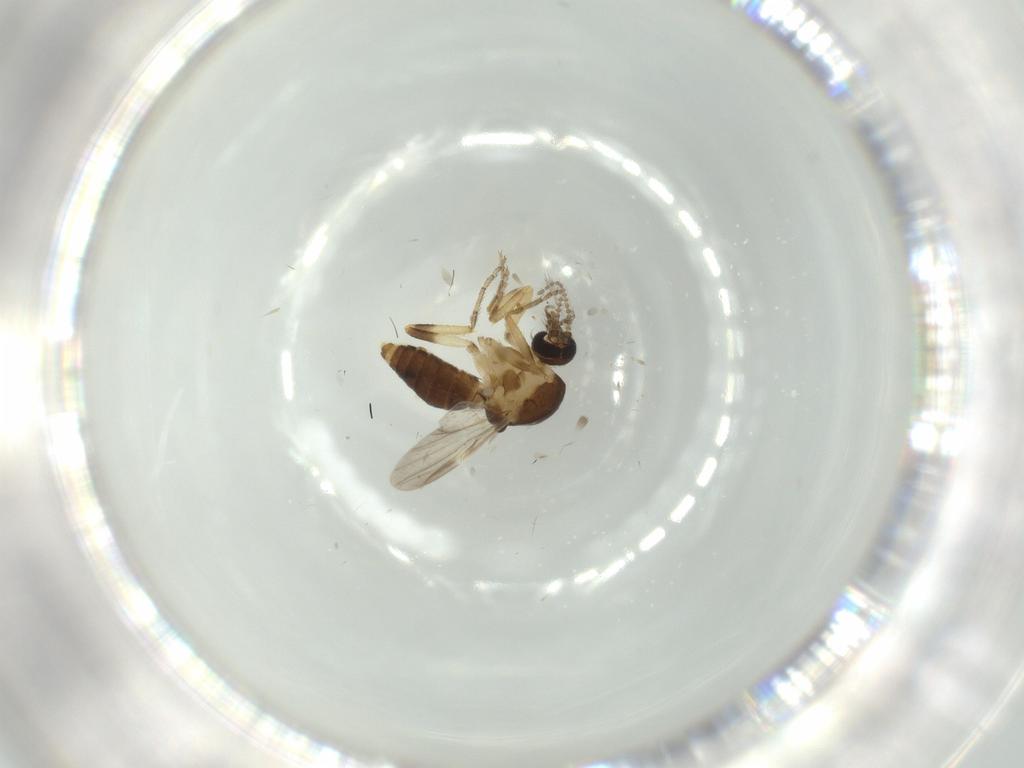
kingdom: Animalia
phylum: Arthropoda
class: Insecta
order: Diptera
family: Ceratopogonidae
